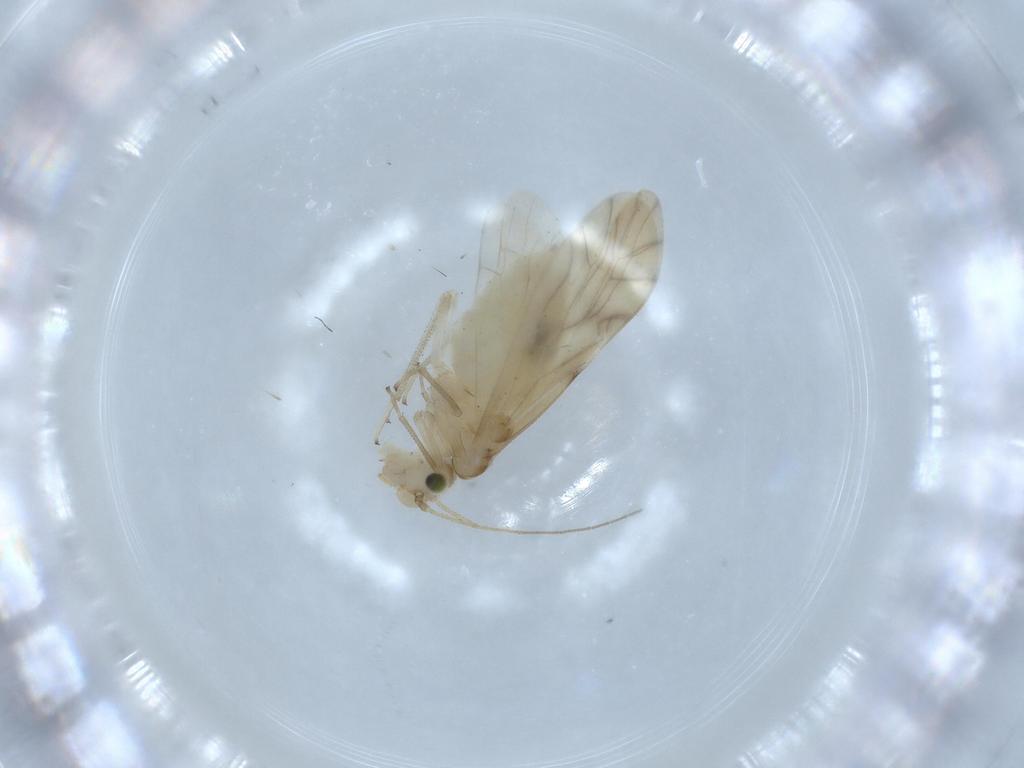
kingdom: Animalia
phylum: Arthropoda
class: Insecta
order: Psocodea
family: Caeciliusidae
